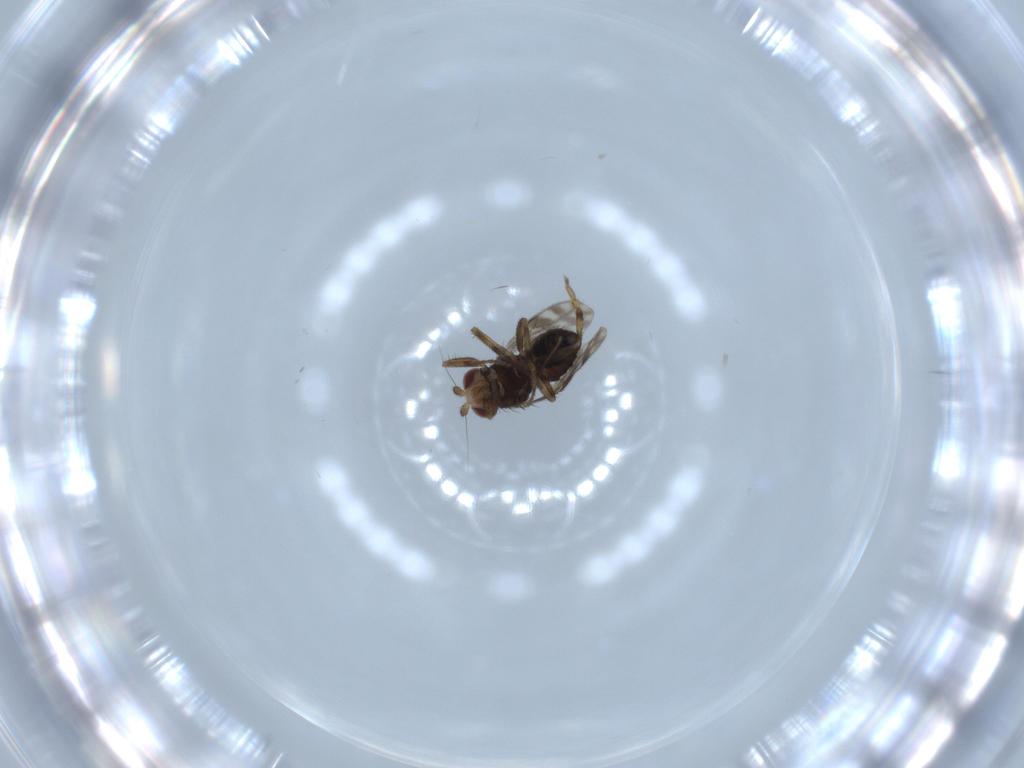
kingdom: Animalia
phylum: Arthropoda
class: Insecta
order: Diptera
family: Sphaeroceridae
